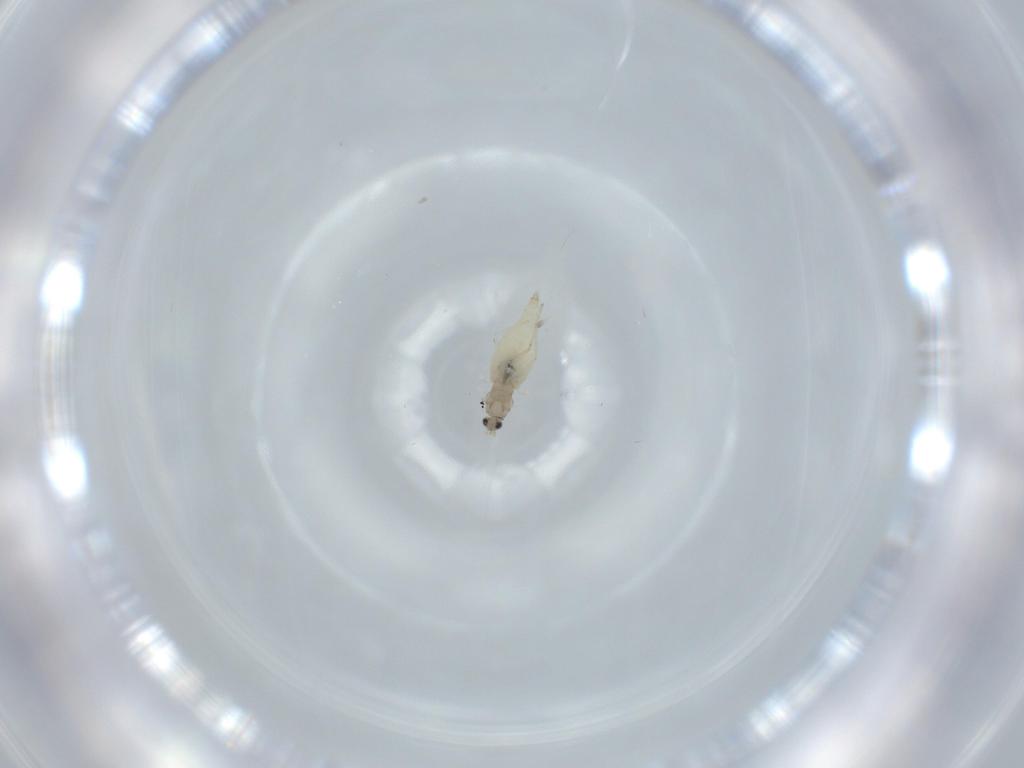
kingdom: Animalia
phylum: Arthropoda
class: Insecta
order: Diptera
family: Cecidomyiidae
